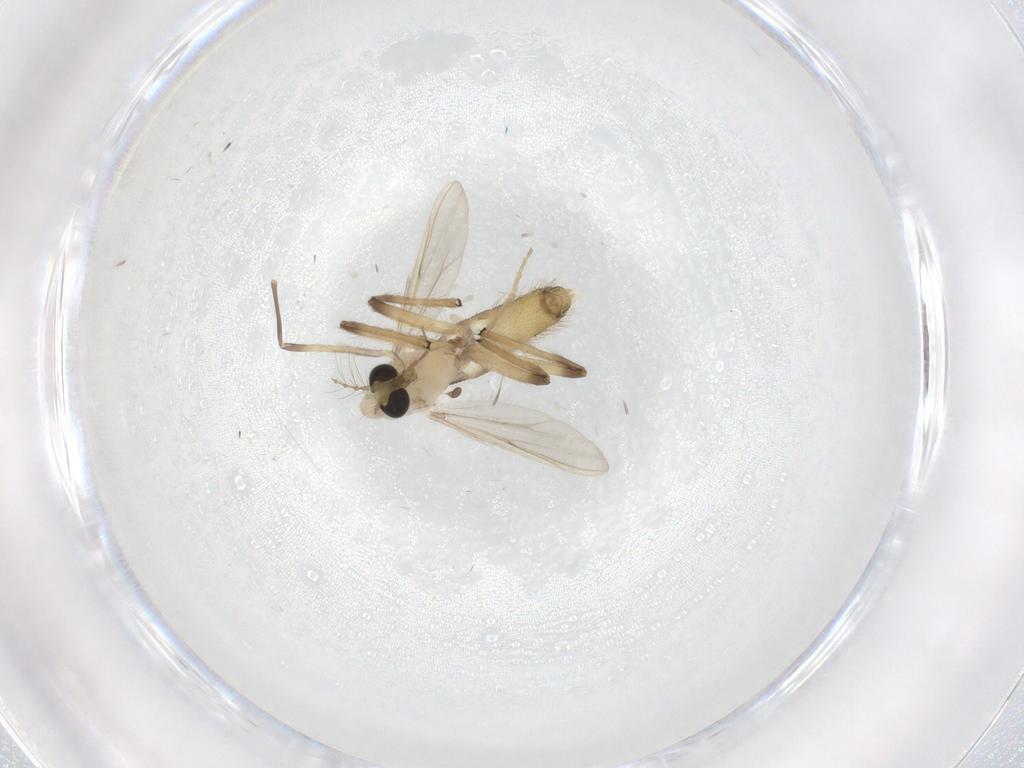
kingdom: Animalia
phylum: Arthropoda
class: Insecta
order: Diptera
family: Chironomidae
